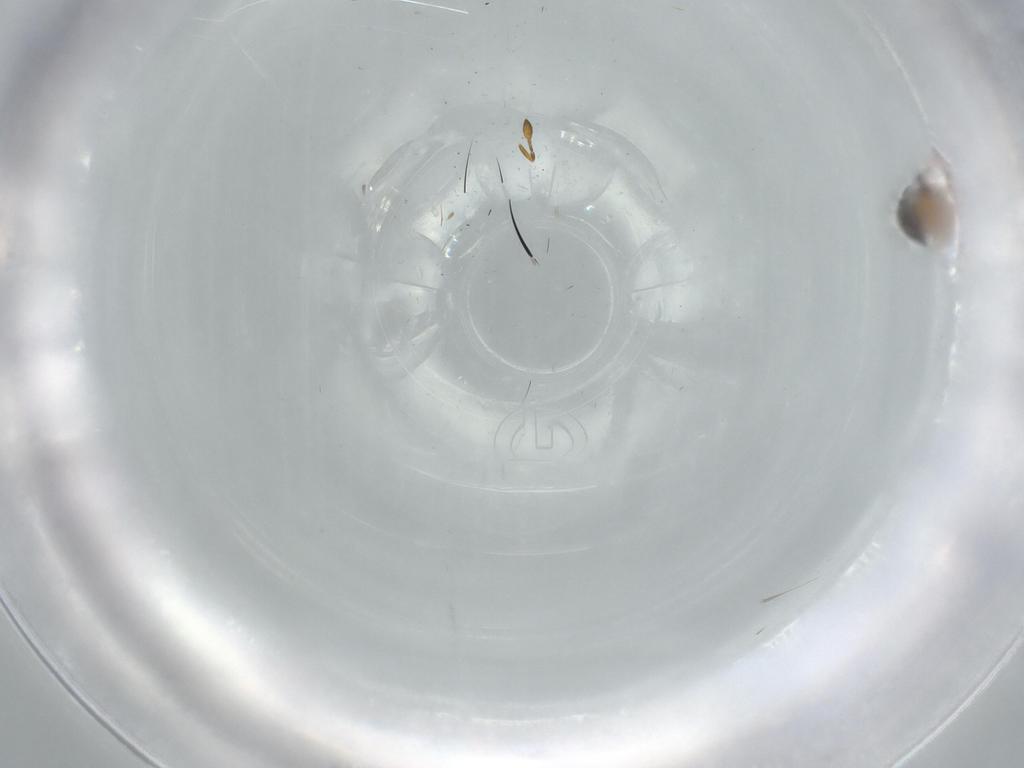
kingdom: Animalia
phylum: Arthropoda
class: Insecta
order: Hymenoptera
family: Scelionidae
